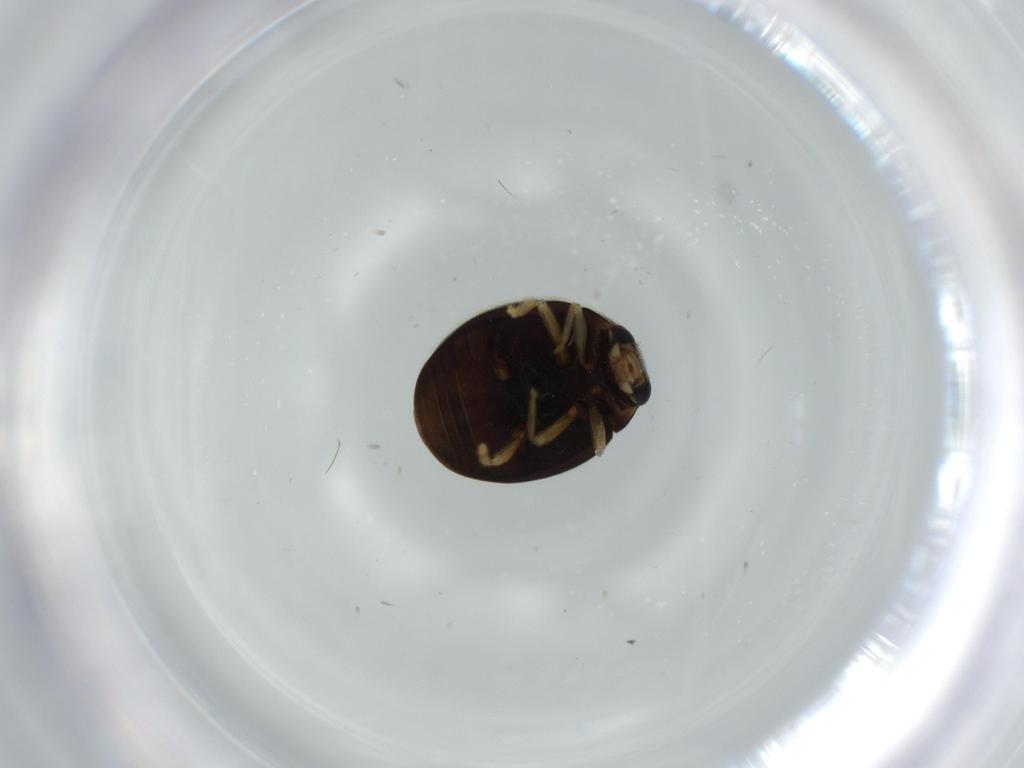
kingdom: Animalia
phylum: Arthropoda
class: Insecta
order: Coleoptera
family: Coccinellidae
